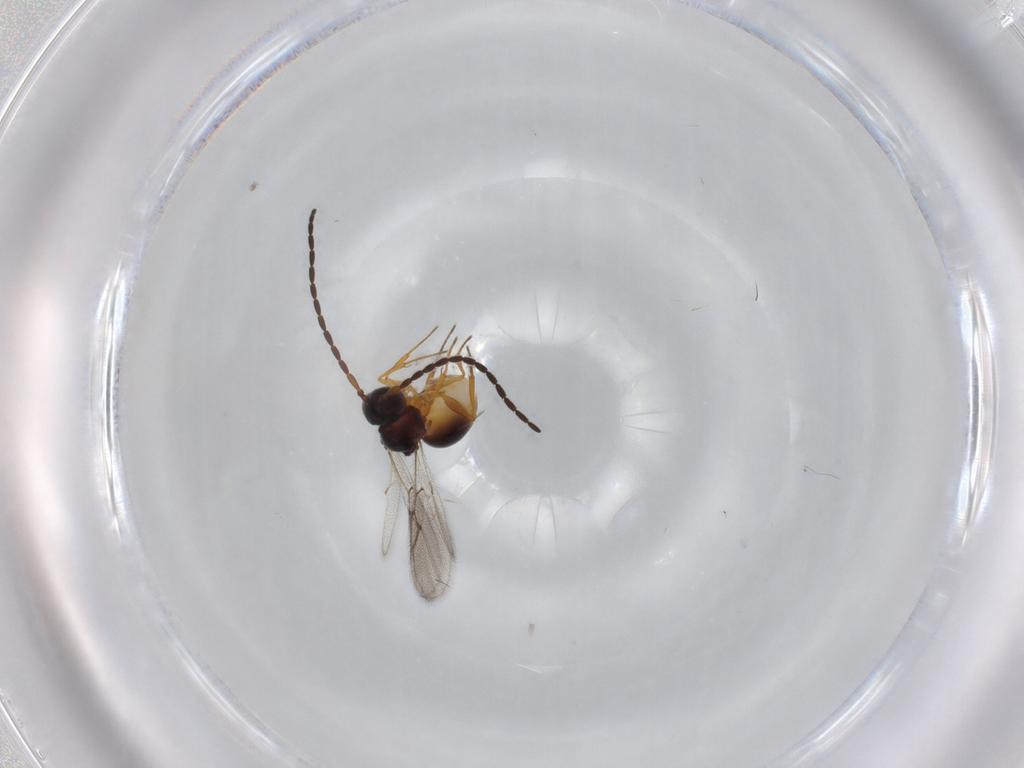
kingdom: Animalia
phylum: Arthropoda
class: Insecta
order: Hymenoptera
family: Figitidae
